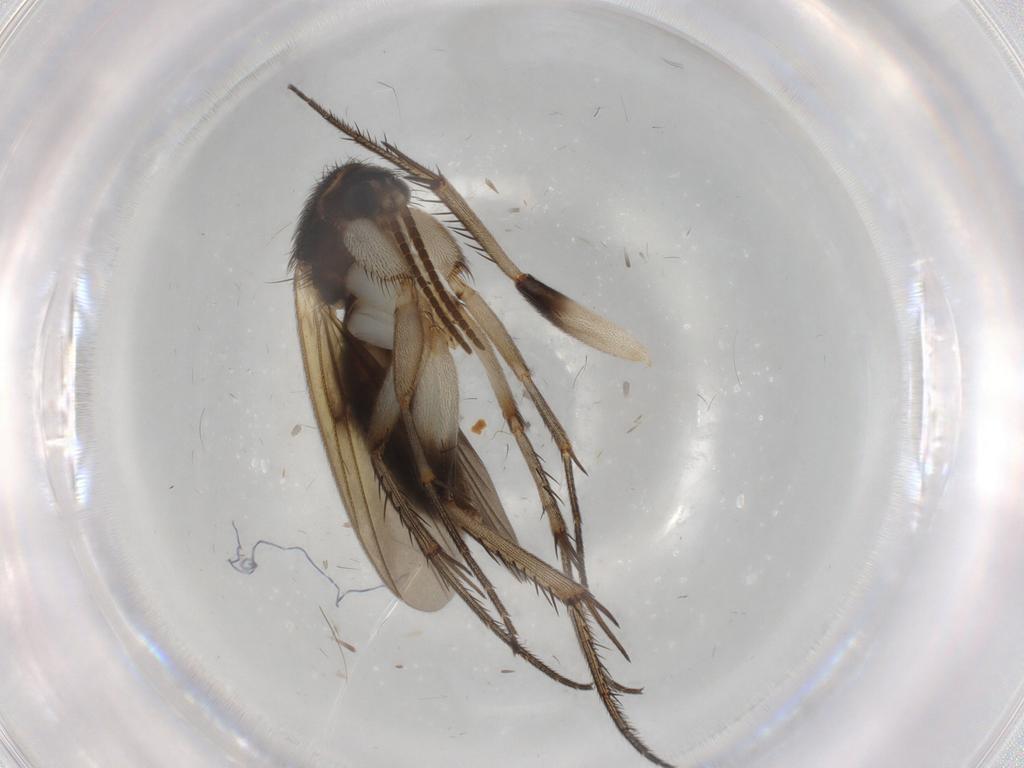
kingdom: Animalia
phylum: Arthropoda
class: Insecta
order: Diptera
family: Mycetophilidae
